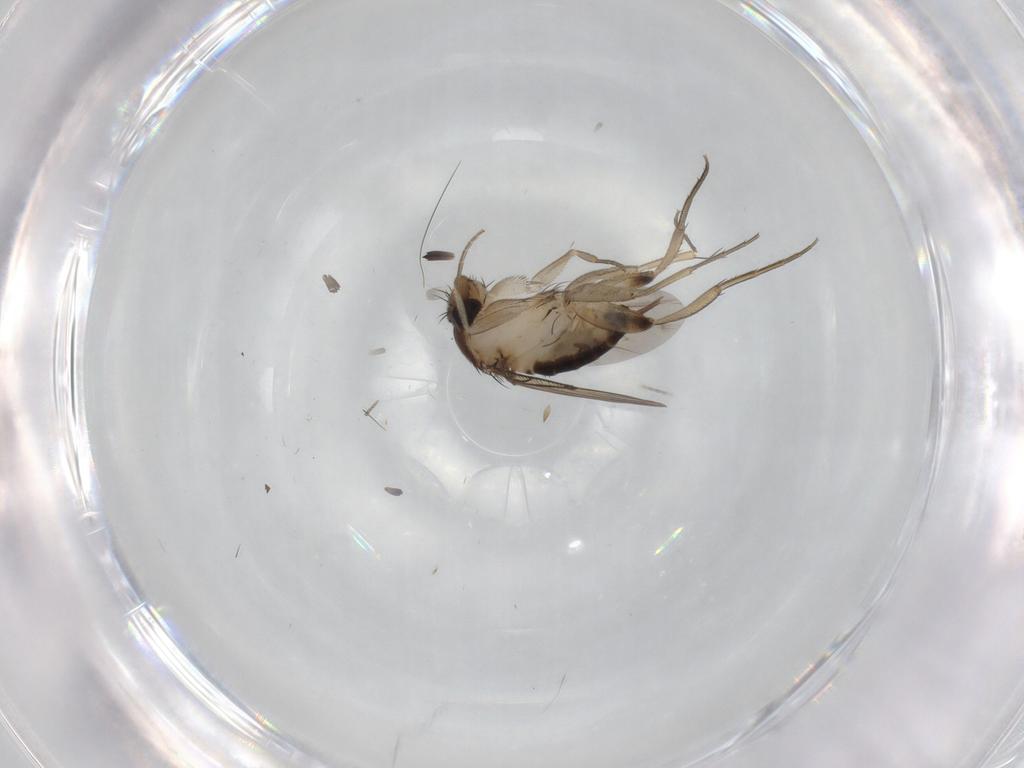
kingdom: Animalia
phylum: Arthropoda
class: Insecta
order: Diptera
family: Phoridae
